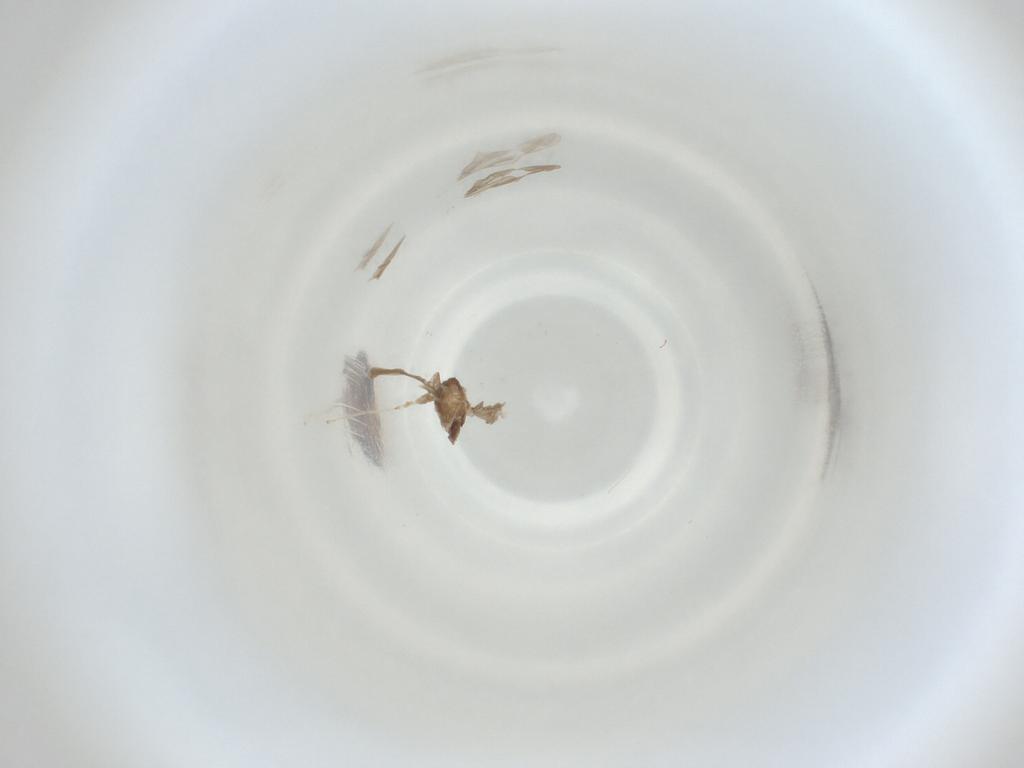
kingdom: Animalia
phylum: Arthropoda
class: Insecta
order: Diptera
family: Cecidomyiidae
